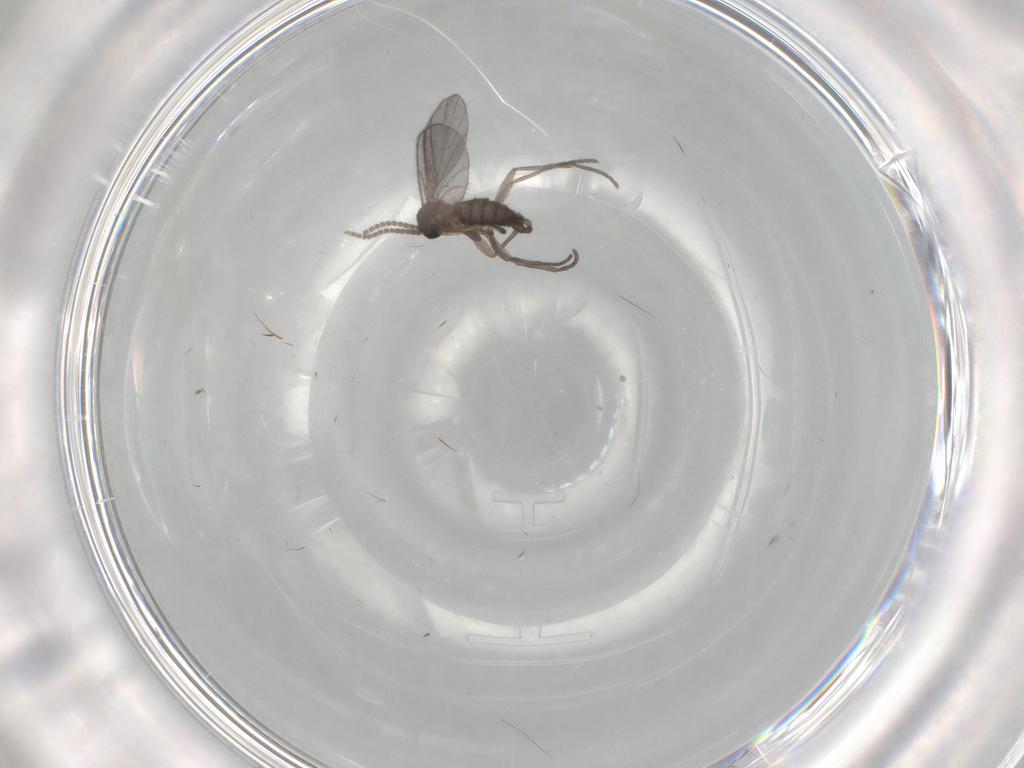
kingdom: Animalia
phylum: Arthropoda
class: Insecta
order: Diptera
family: Sciaridae
